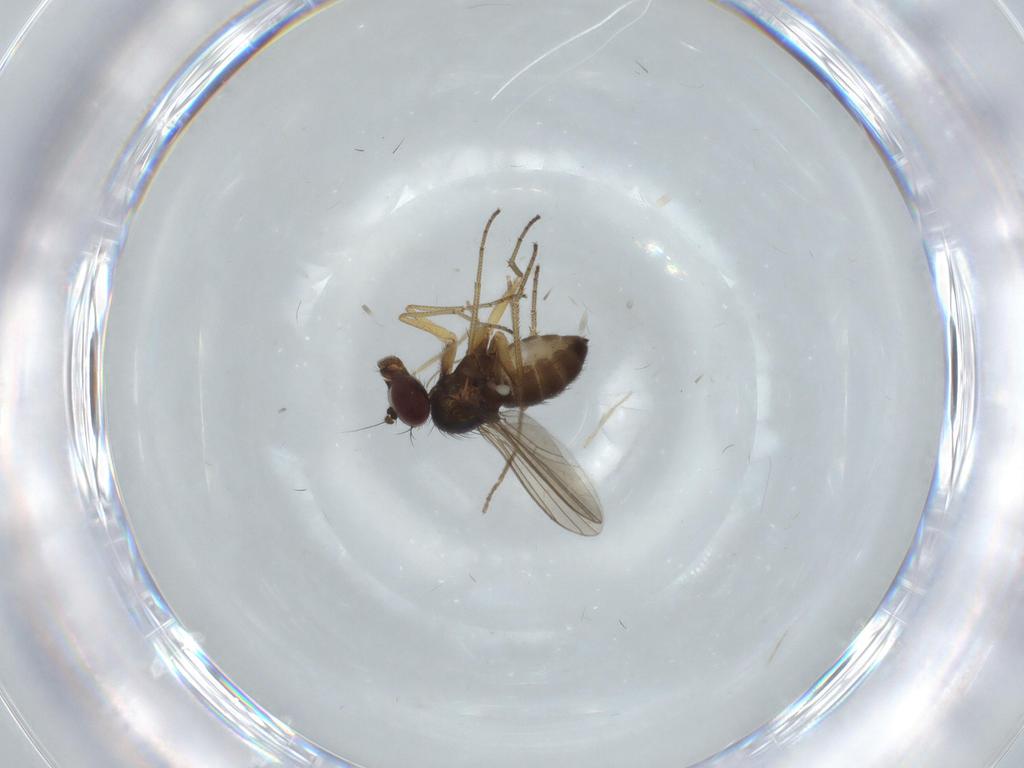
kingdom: Animalia
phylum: Arthropoda
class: Insecta
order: Diptera
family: Dolichopodidae
